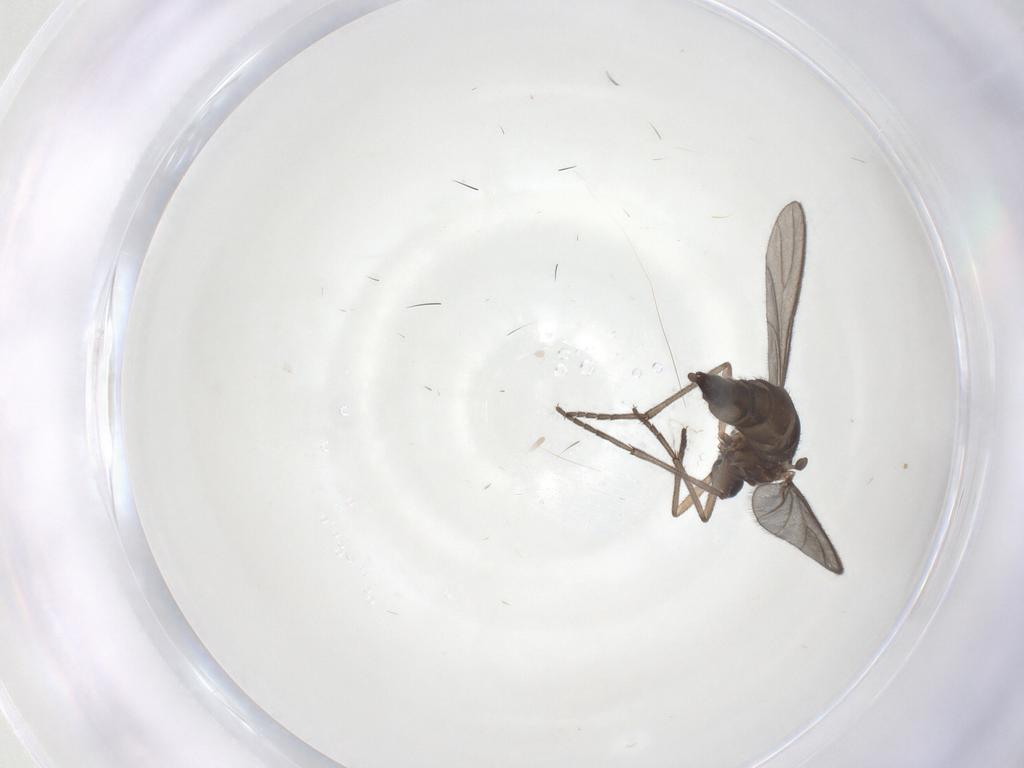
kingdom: Animalia
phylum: Arthropoda
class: Insecta
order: Diptera
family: Sciaridae
